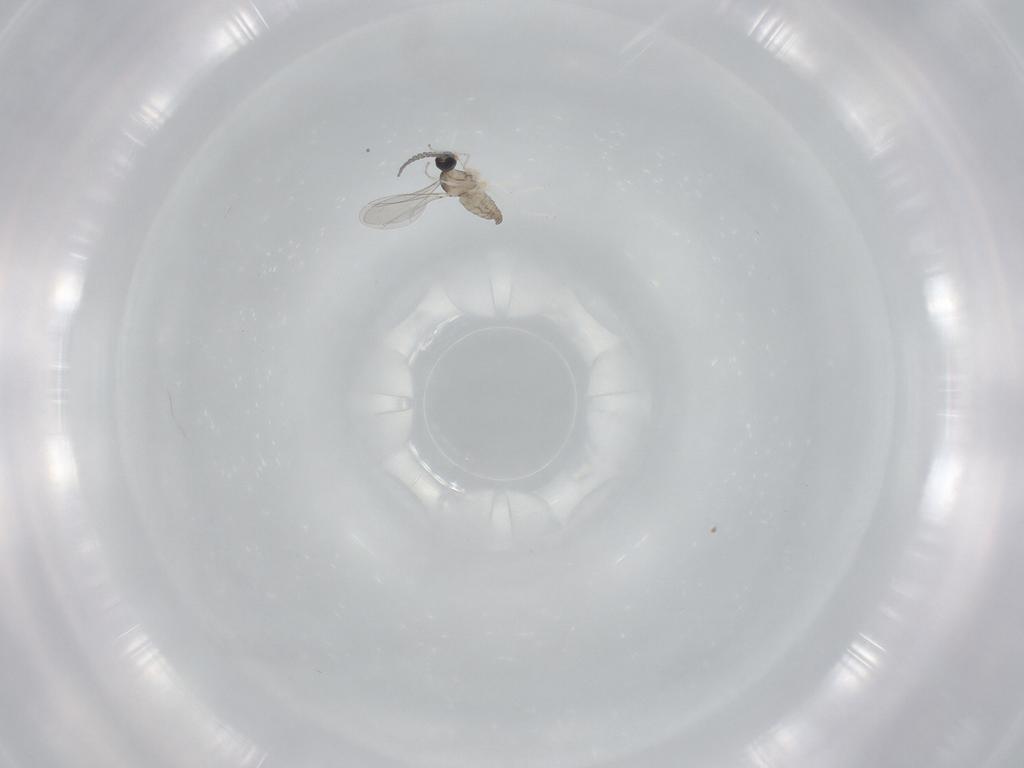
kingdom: Animalia
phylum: Arthropoda
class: Insecta
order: Diptera
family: Cecidomyiidae
